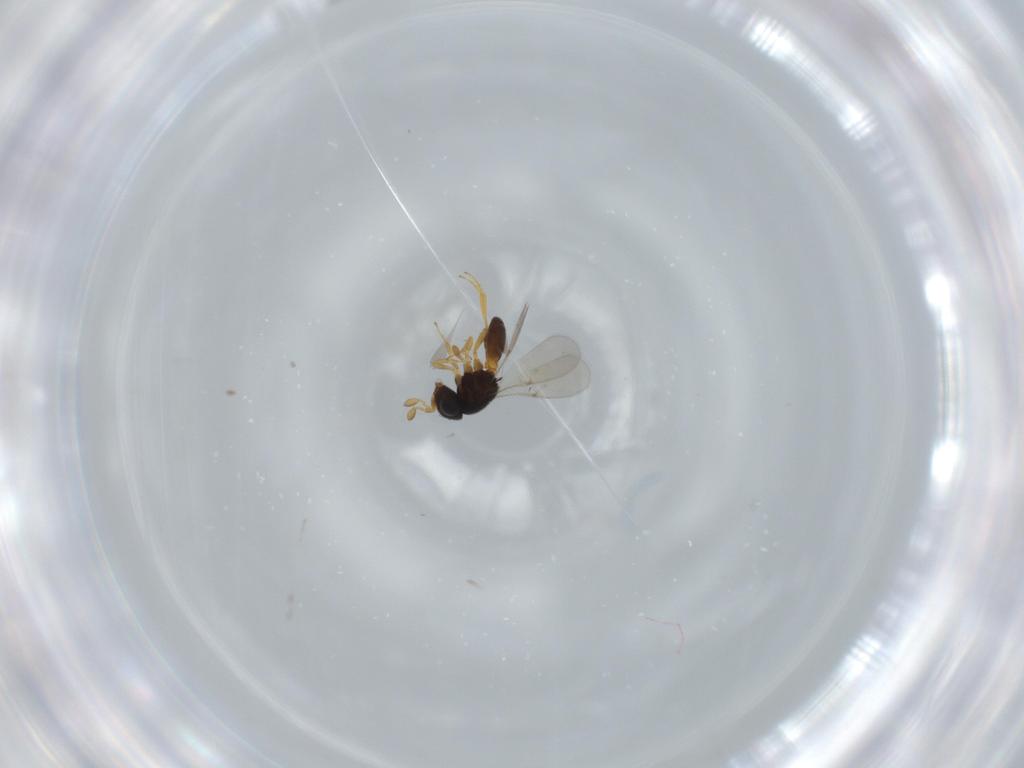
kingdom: Animalia
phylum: Arthropoda
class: Insecta
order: Hymenoptera
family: Scelionidae
